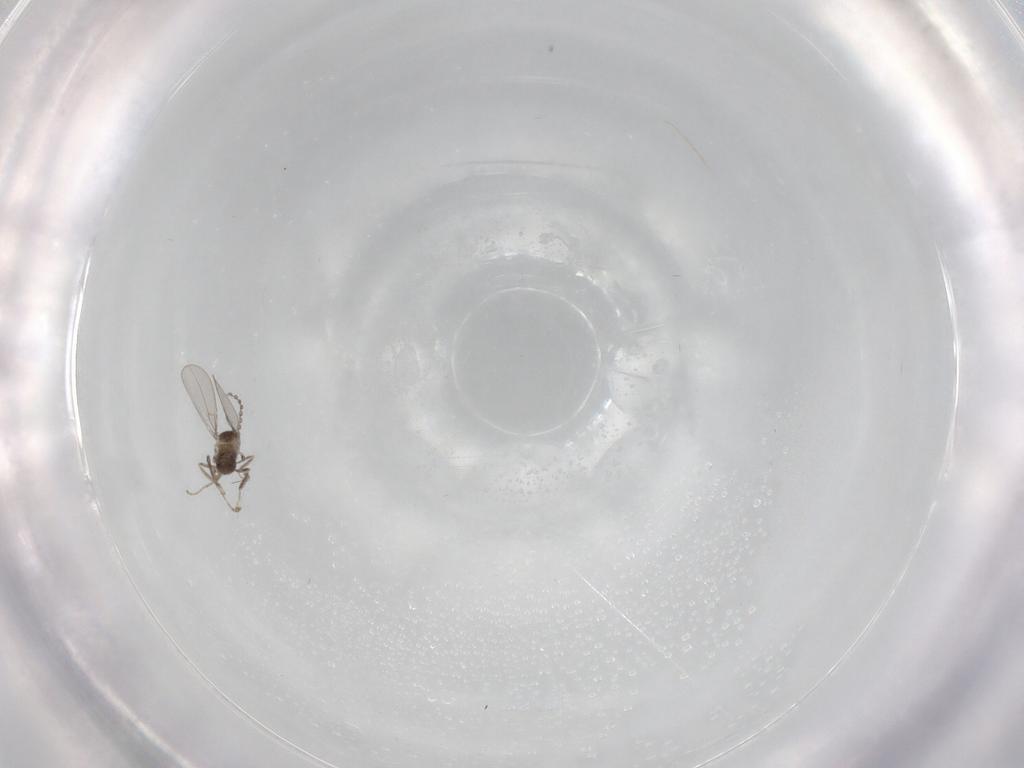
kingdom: Animalia
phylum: Arthropoda
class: Insecta
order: Diptera
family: Cecidomyiidae
